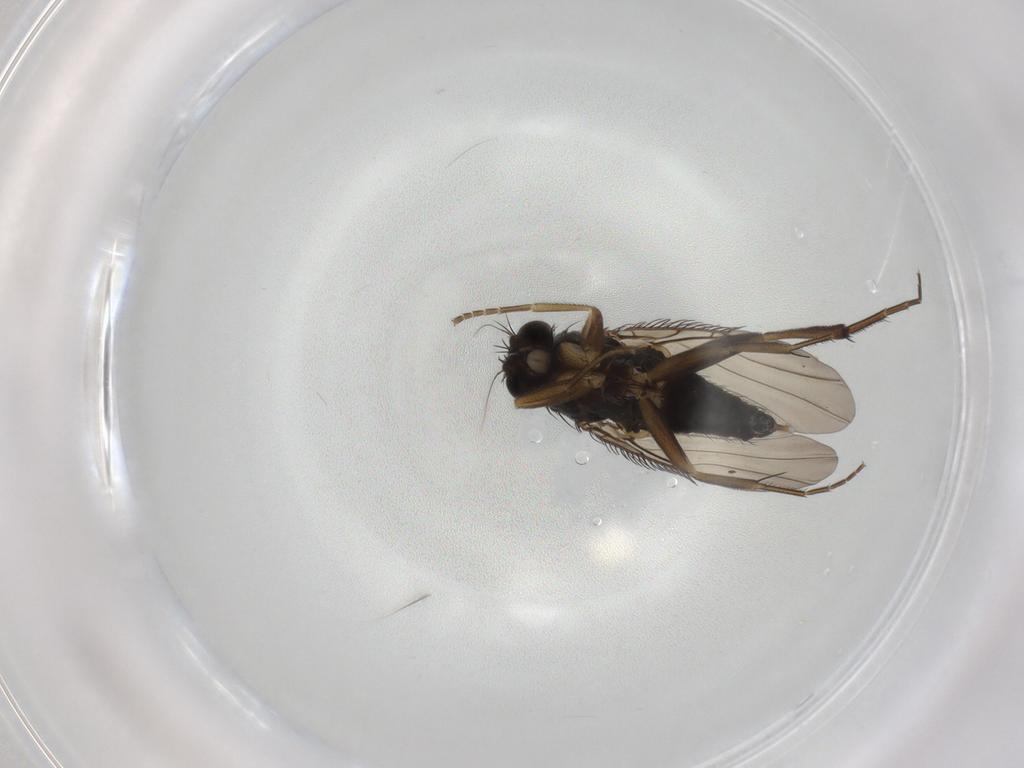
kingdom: Animalia
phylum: Arthropoda
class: Insecta
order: Diptera
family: Phoridae
